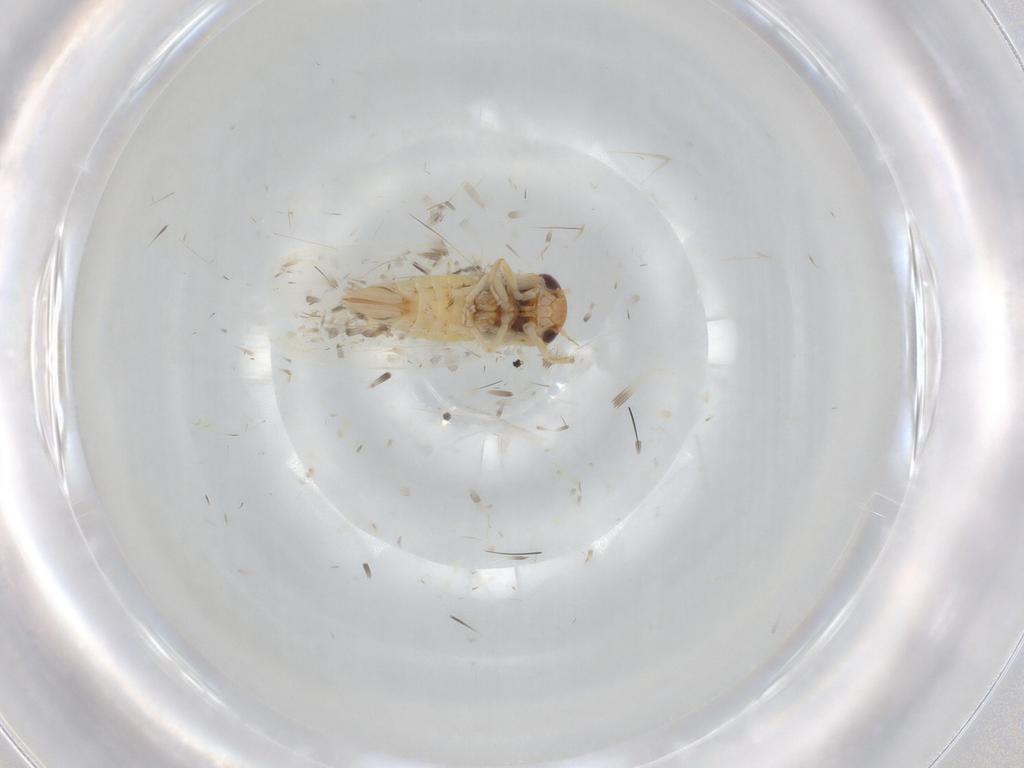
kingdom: Animalia
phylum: Arthropoda
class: Insecta
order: Hemiptera
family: Cicadellidae
